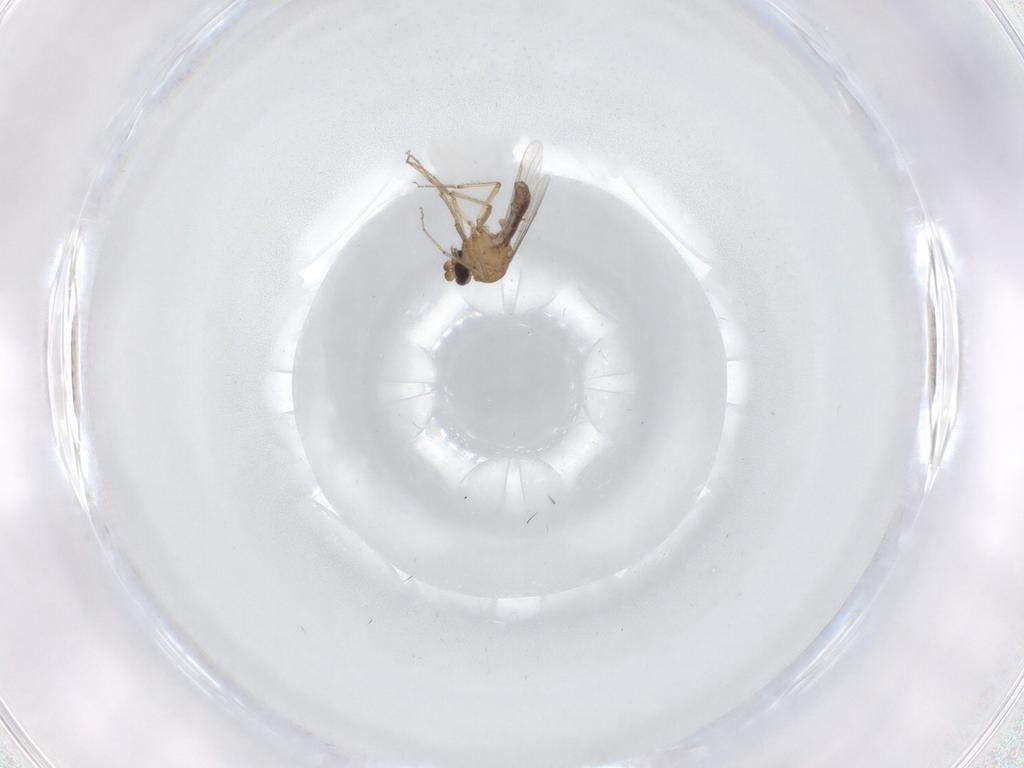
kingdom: Animalia
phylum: Arthropoda
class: Insecta
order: Diptera
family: Ceratopogonidae
